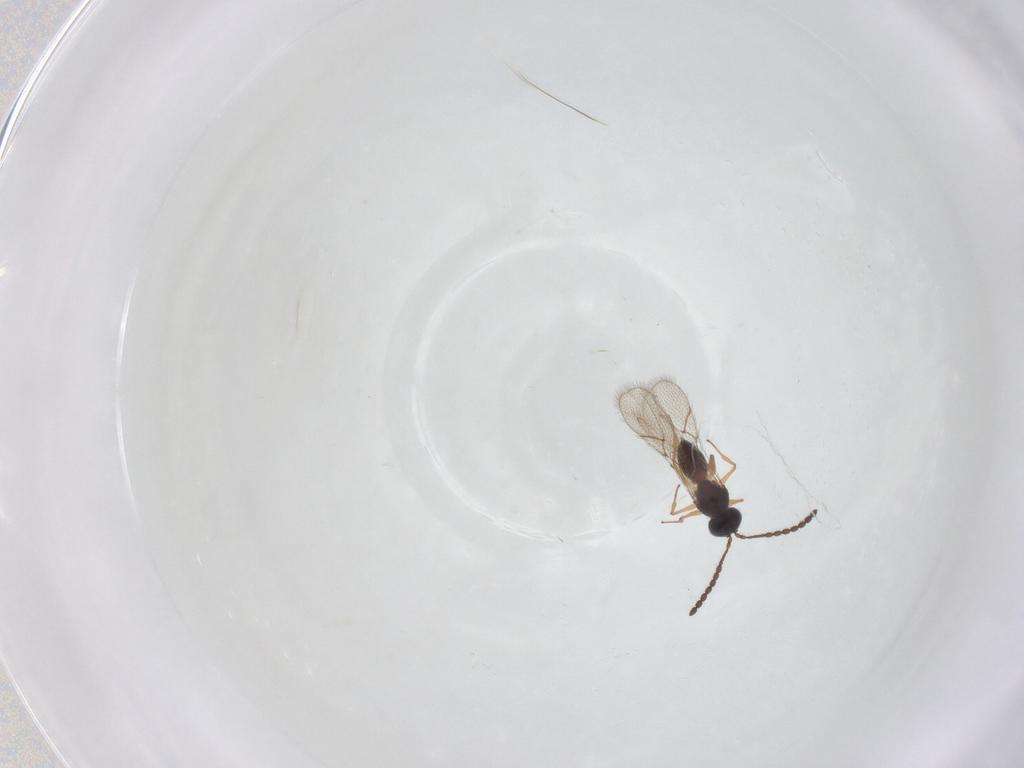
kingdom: Animalia
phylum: Arthropoda
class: Insecta
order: Hymenoptera
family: Figitidae
